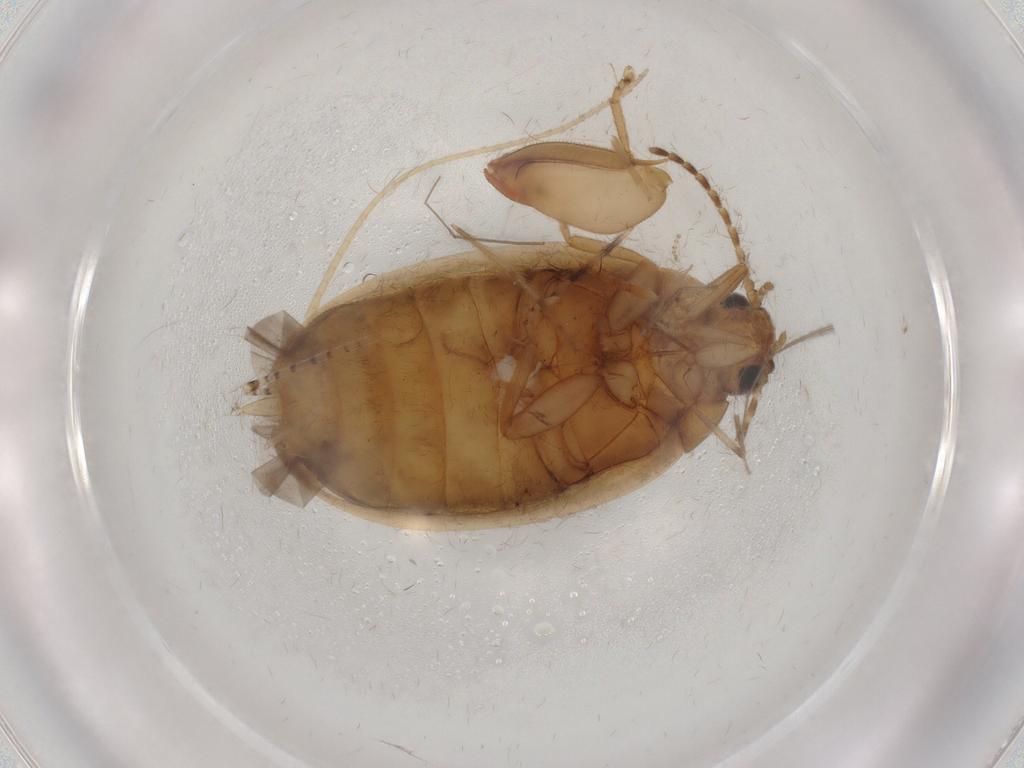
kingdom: Animalia
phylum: Arthropoda
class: Insecta
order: Coleoptera
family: Scirtidae
